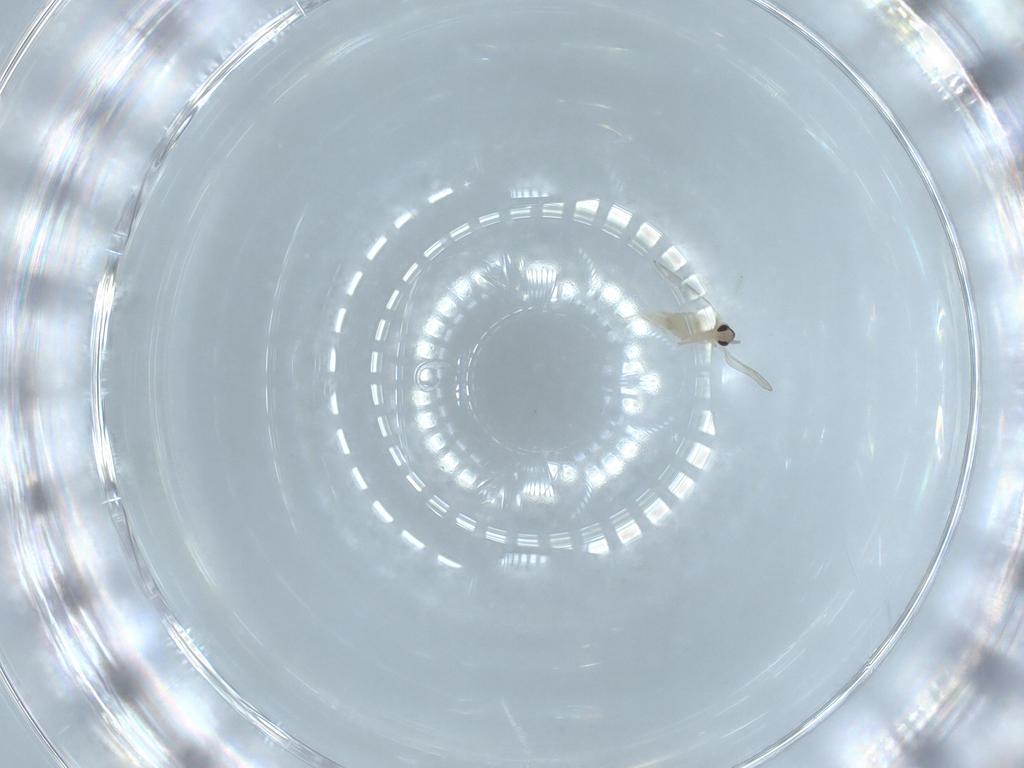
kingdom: Animalia
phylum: Arthropoda
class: Insecta
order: Diptera
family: Cecidomyiidae
